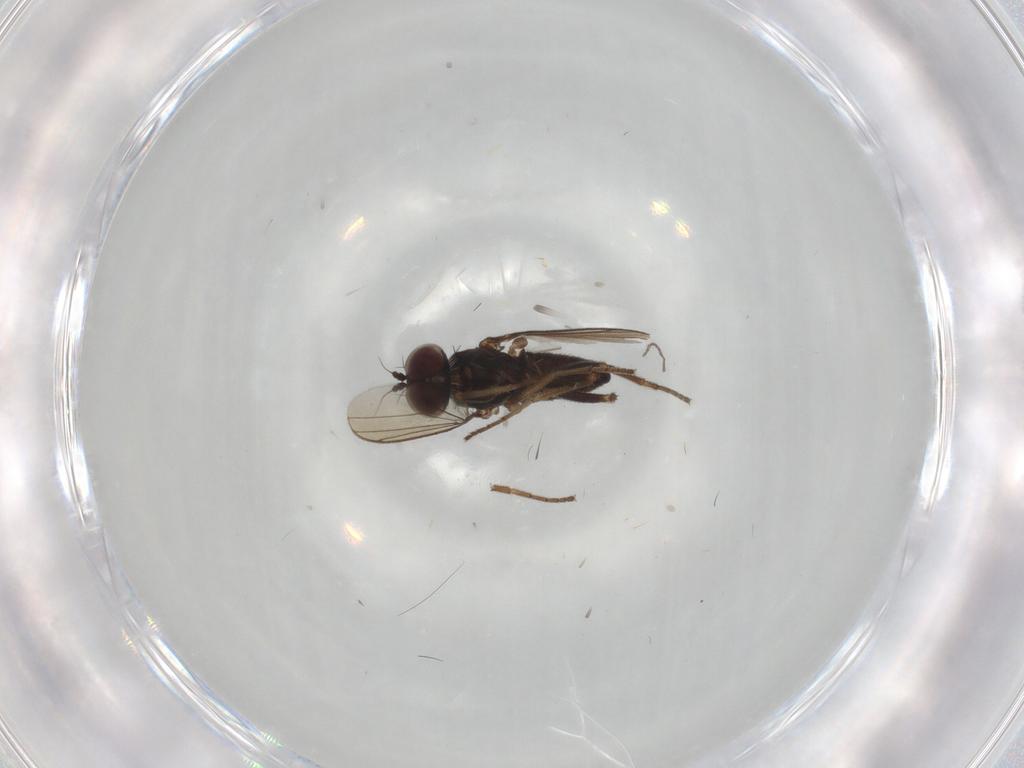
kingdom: Animalia
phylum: Arthropoda
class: Insecta
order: Diptera
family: Dolichopodidae
